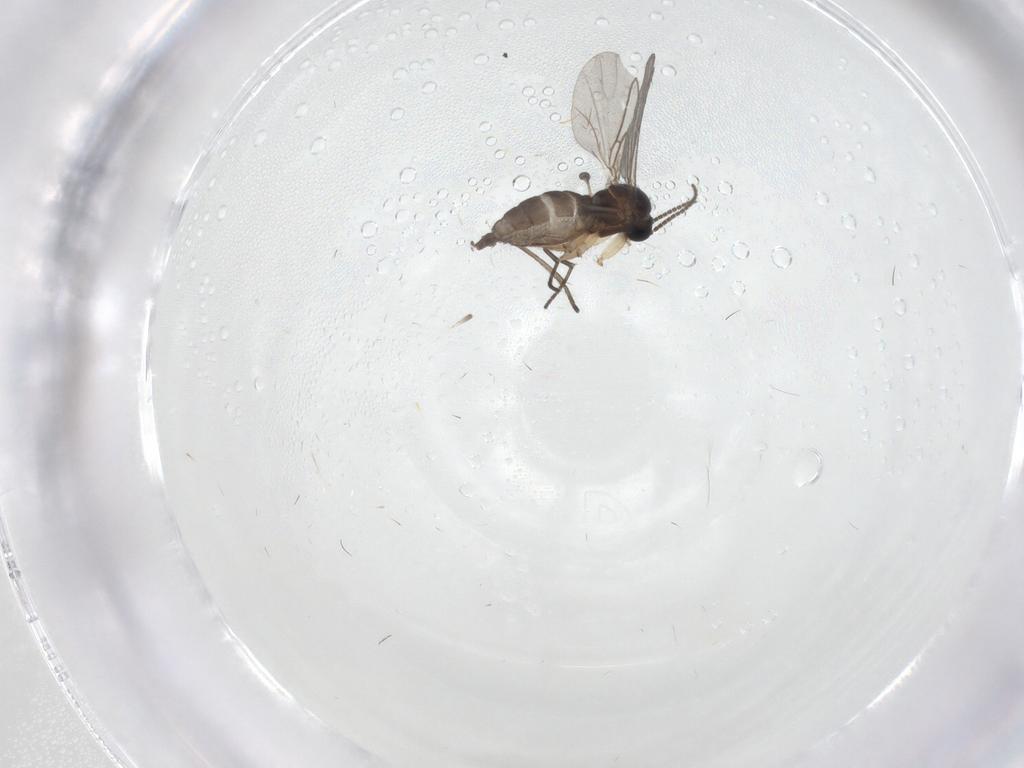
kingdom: Animalia
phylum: Arthropoda
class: Insecta
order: Diptera
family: Sciaridae
